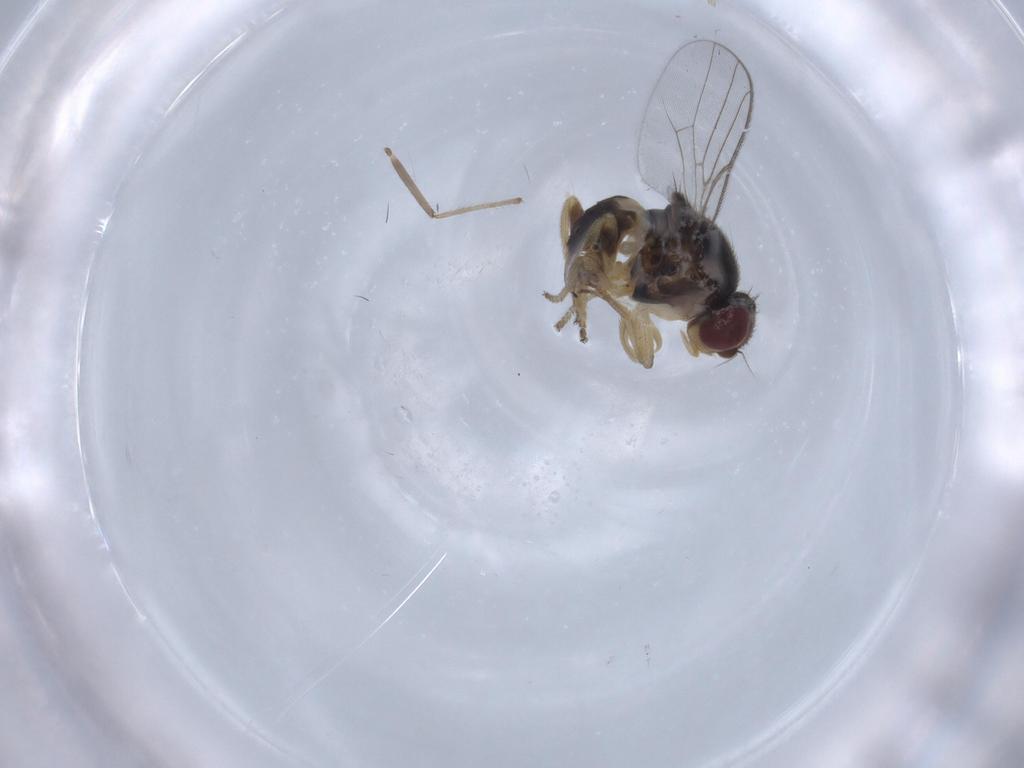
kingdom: Animalia
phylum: Arthropoda
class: Insecta
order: Diptera
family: Chloropidae
